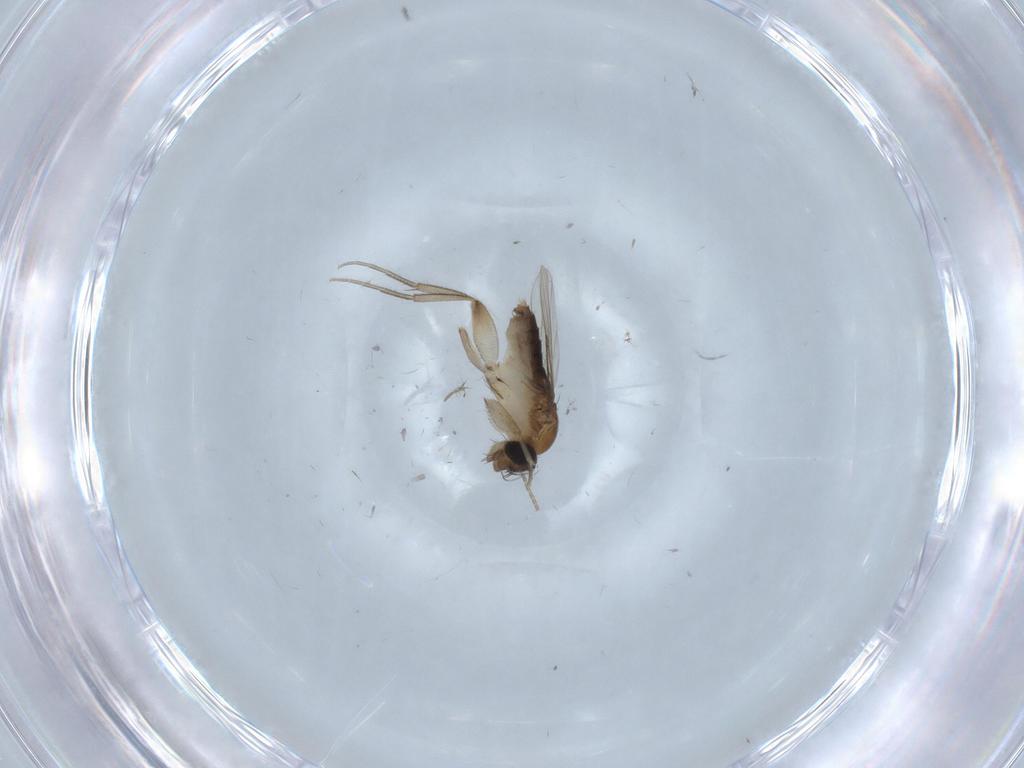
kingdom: Animalia
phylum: Arthropoda
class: Insecta
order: Diptera
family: Phoridae
